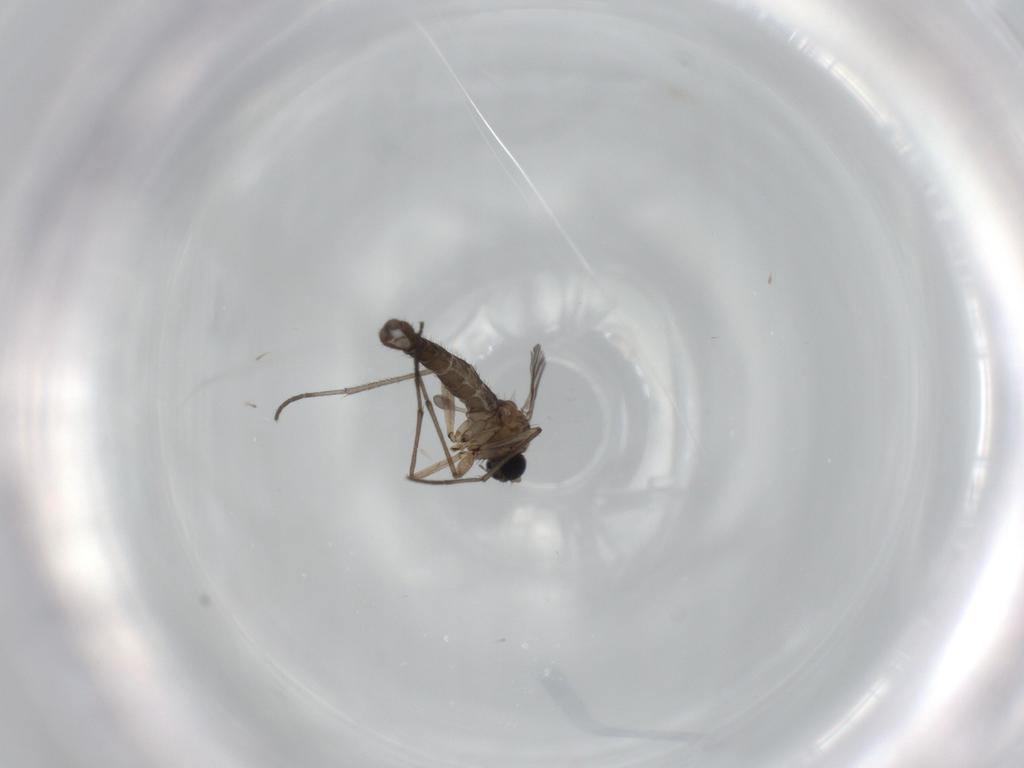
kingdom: Animalia
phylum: Arthropoda
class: Insecta
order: Diptera
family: Sciaridae
